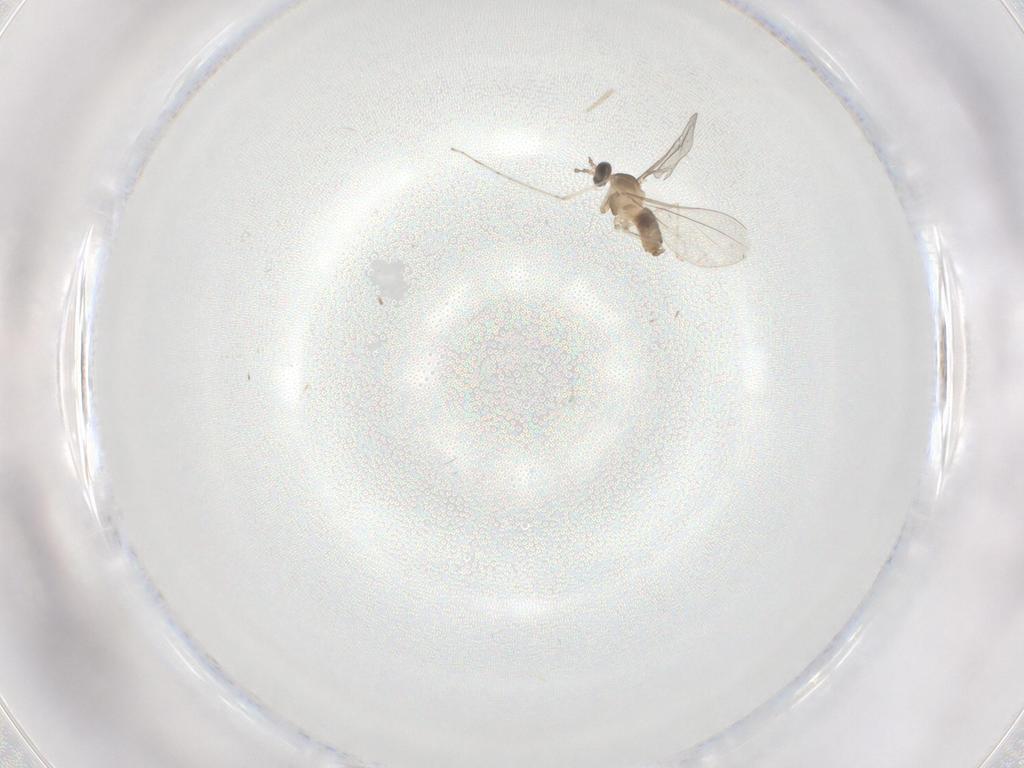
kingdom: Animalia
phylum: Arthropoda
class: Insecta
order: Diptera
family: Cecidomyiidae
